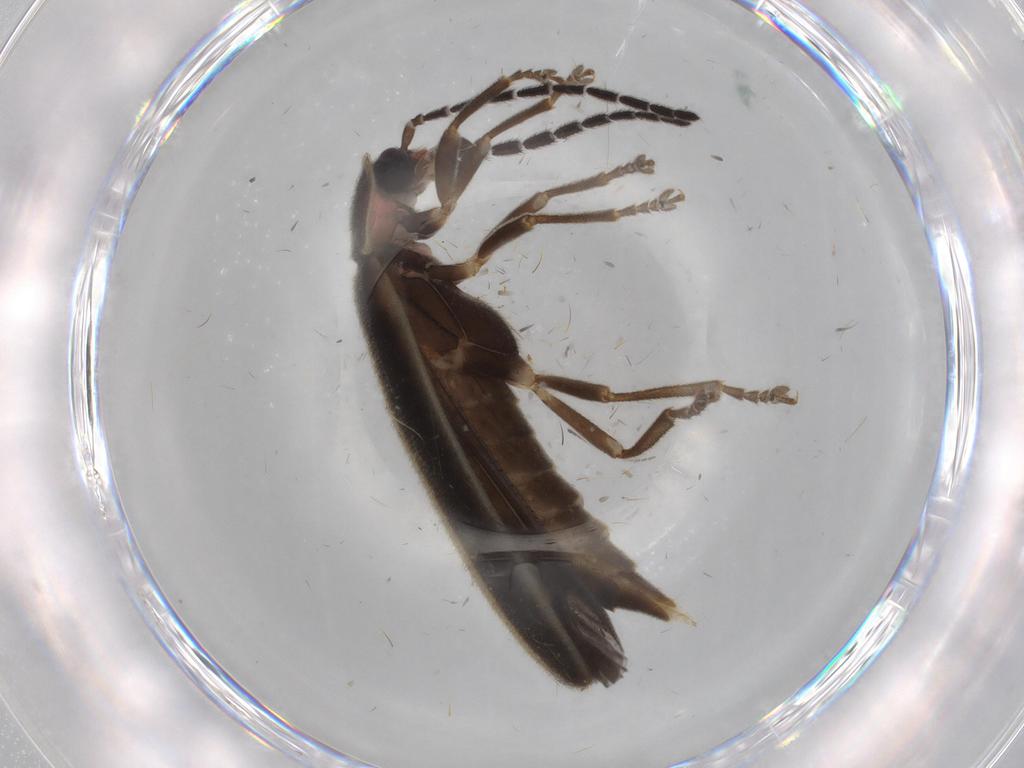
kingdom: Animalia
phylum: Arthropoda
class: Insecta
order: Coleoptera
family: Lampyridae
